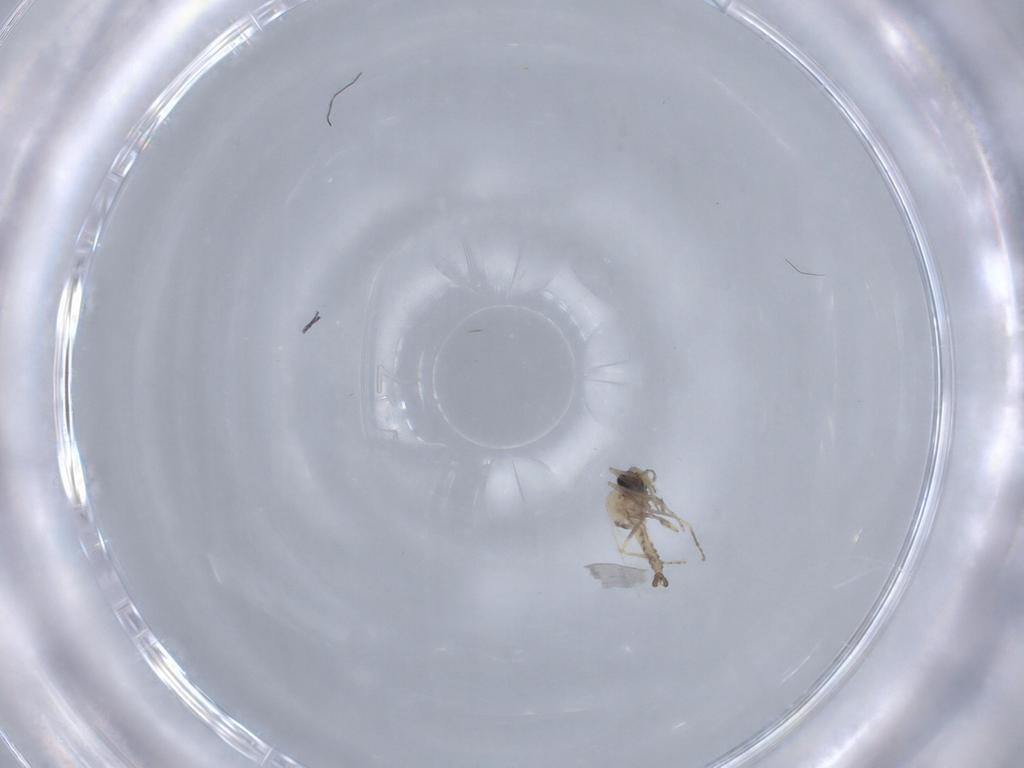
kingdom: Animalia
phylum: Arthropoda
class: Insecta
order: Diptera
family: Ceratopogonidae
